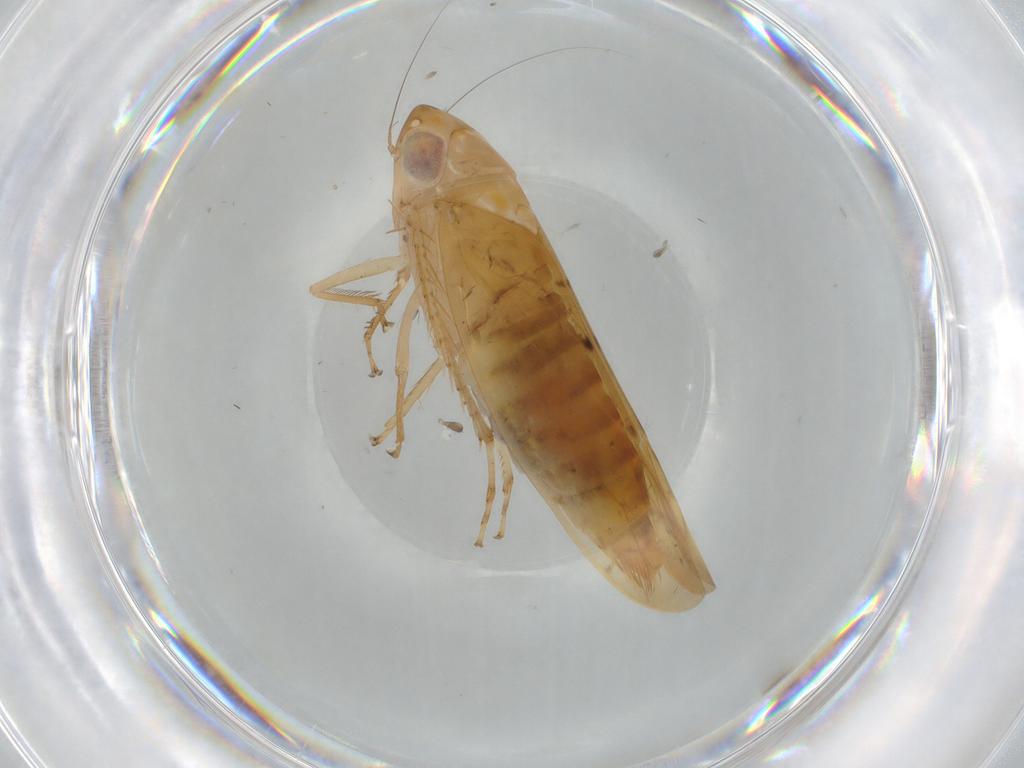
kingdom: Animalia
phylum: Arthropoda
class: Insecta
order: Hemiptera
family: Cicadellidae
